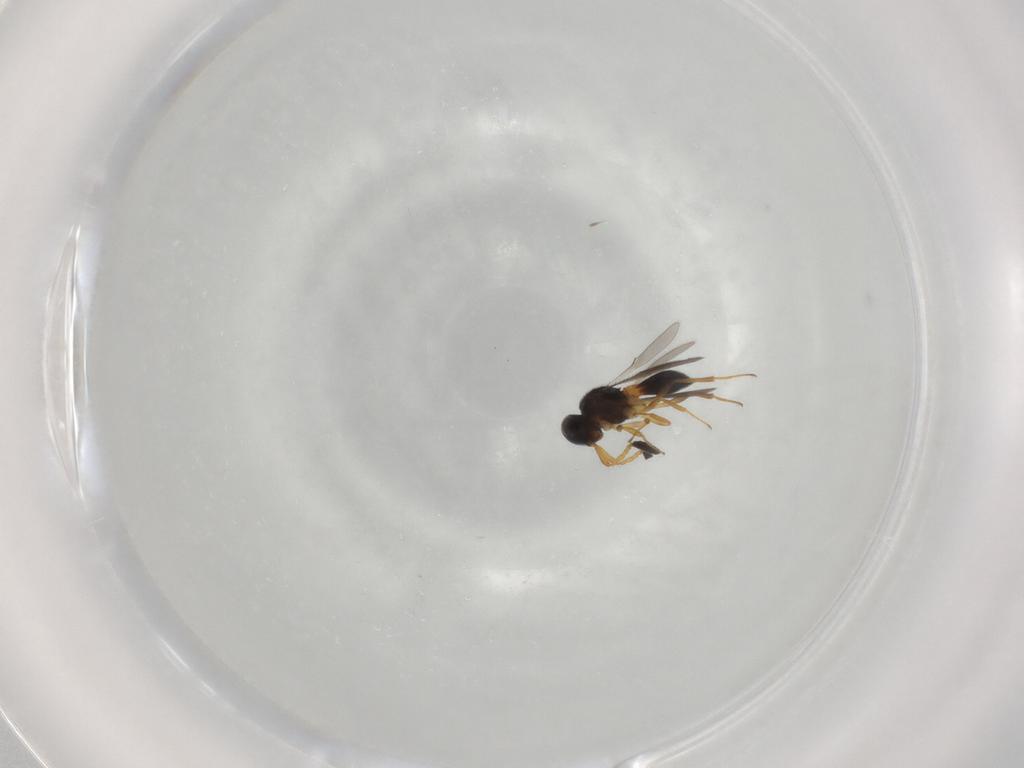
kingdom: Animalia
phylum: Arthropoda
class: Insecta
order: Hymenoptera
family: Scelionidae
